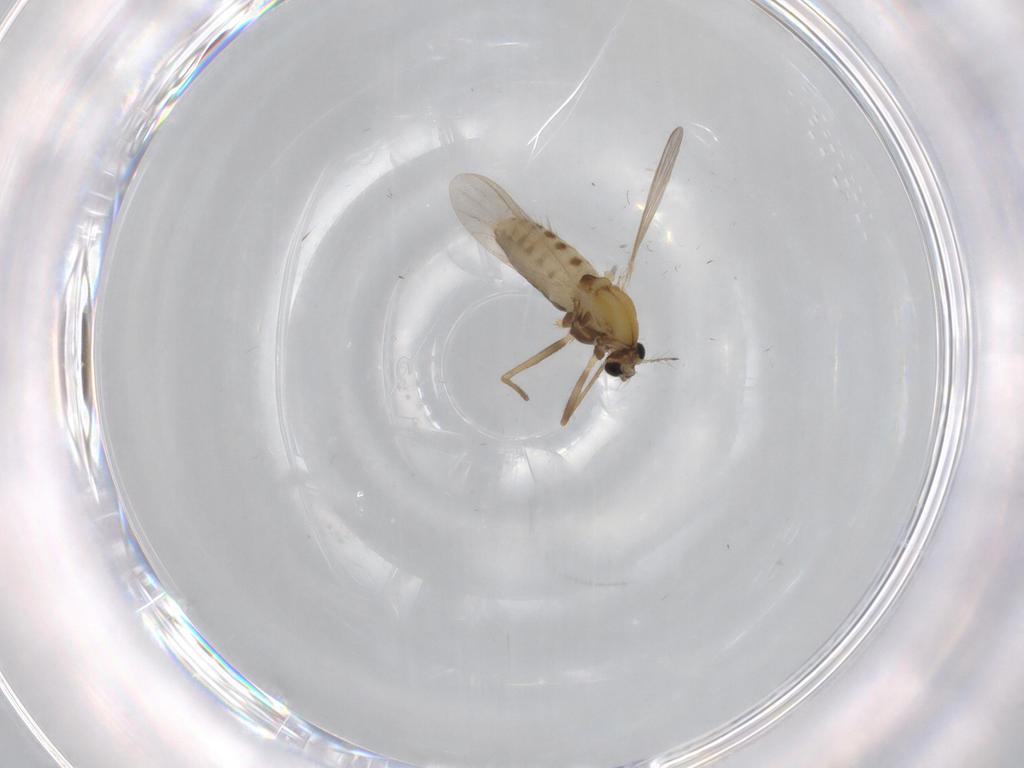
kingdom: Animalia
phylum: Arthropoda
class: Insecta
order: Diptera
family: Chironomidae
